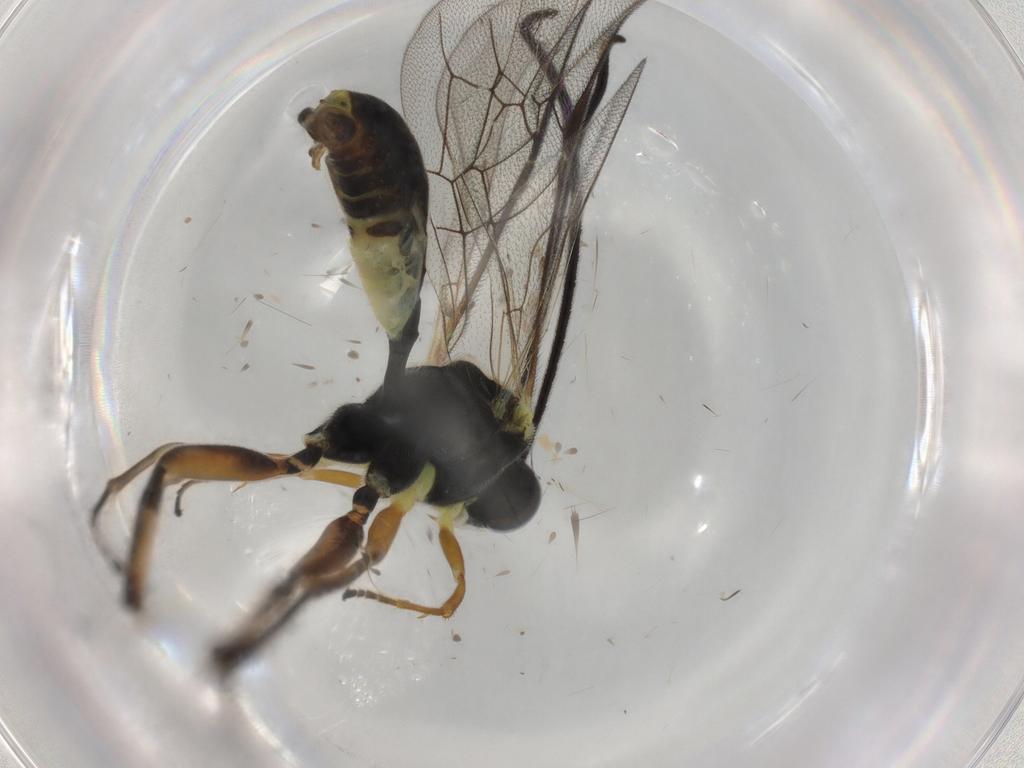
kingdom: Animalia
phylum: Arthropoda
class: Insecta
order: Hymenoptera
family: Ichneumonidae
